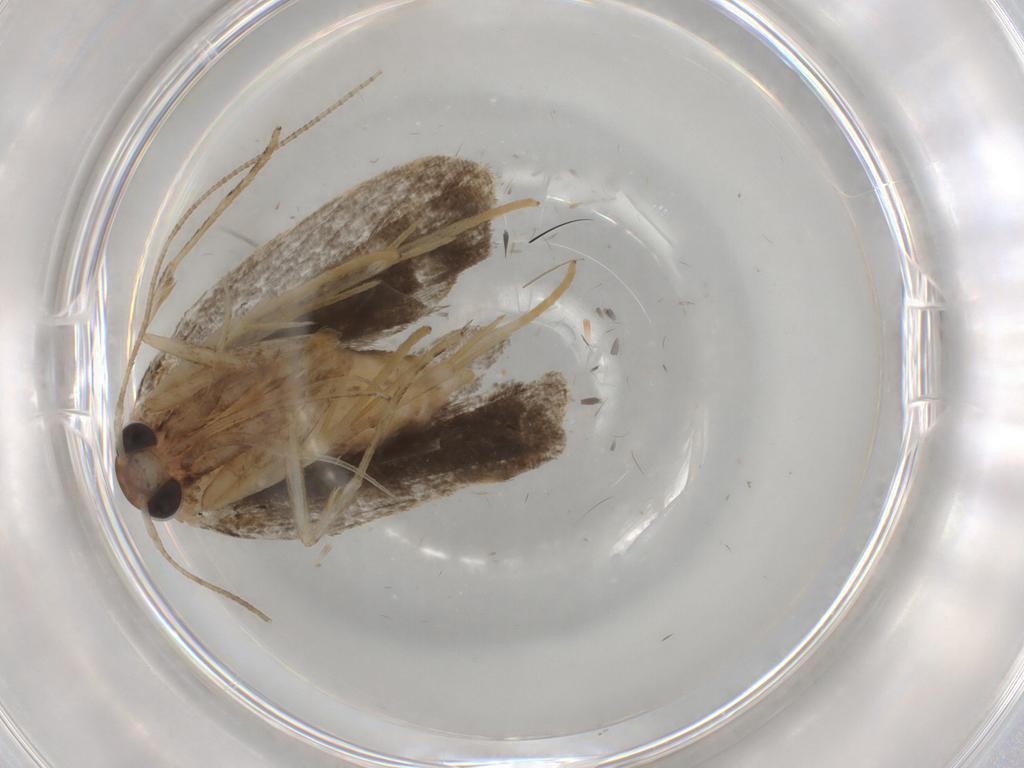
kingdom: Animalia
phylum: Arthropoda
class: Insecta
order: Lepidoptera
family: Cosmopterigidae
